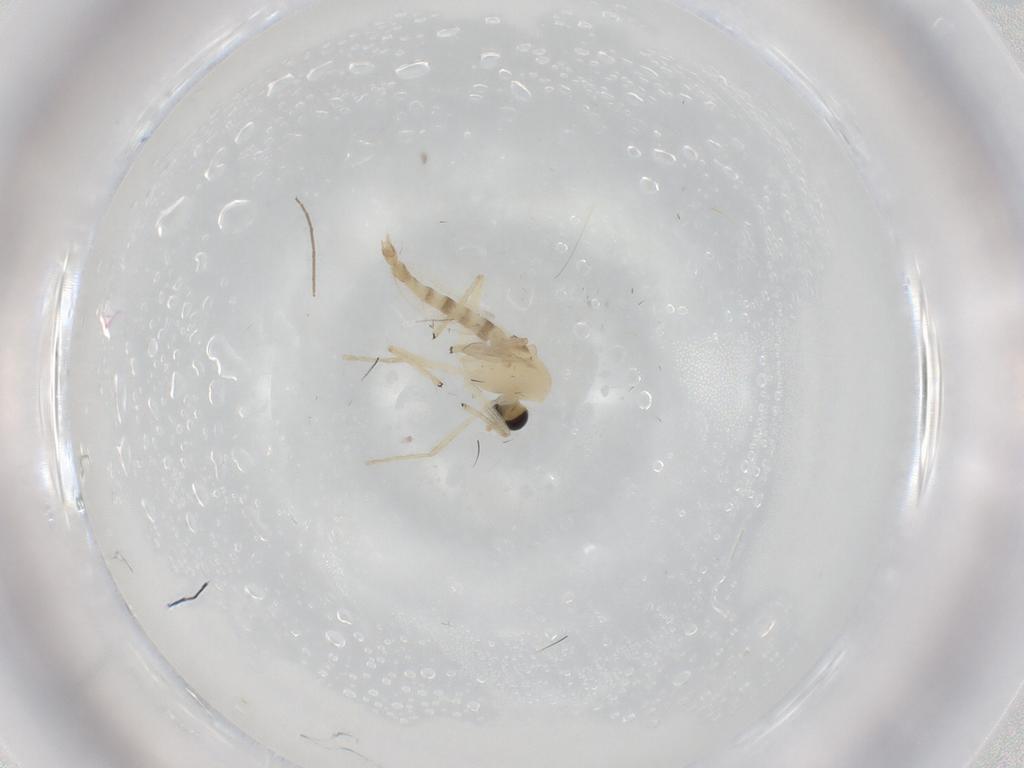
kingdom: Animalia
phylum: Arthropoda
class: Insecta
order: Diptera
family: Chironomidae
